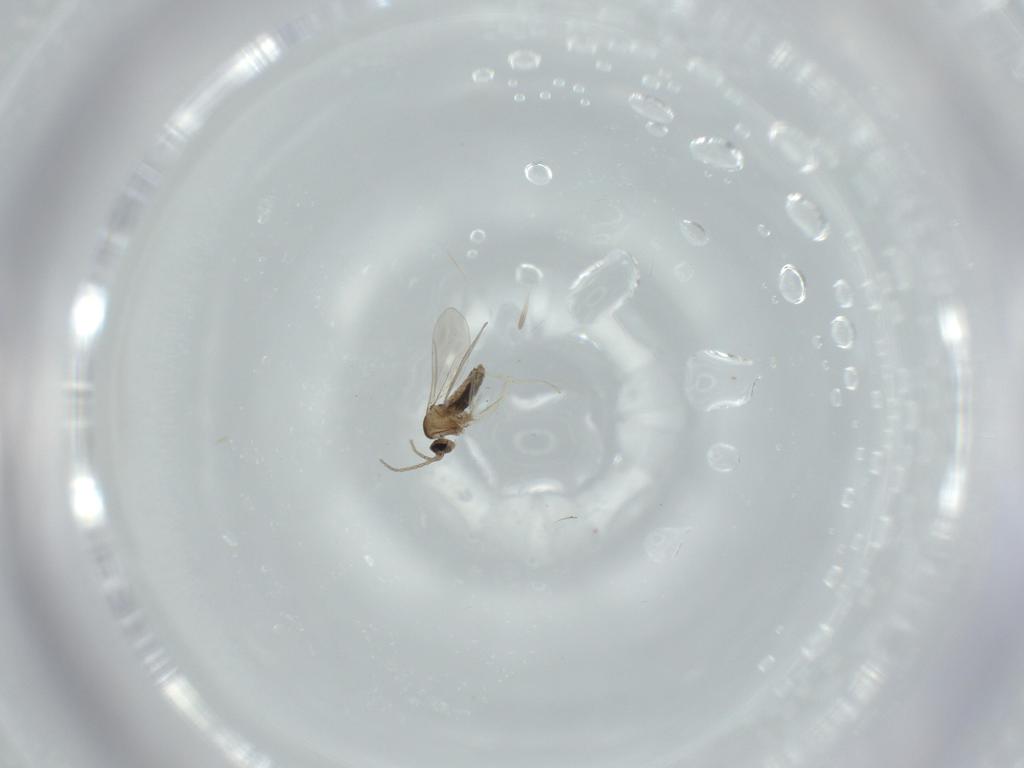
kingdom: Animalia
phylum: Arthropoda
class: Insecta
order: Diptera
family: Cecidomyiidae
